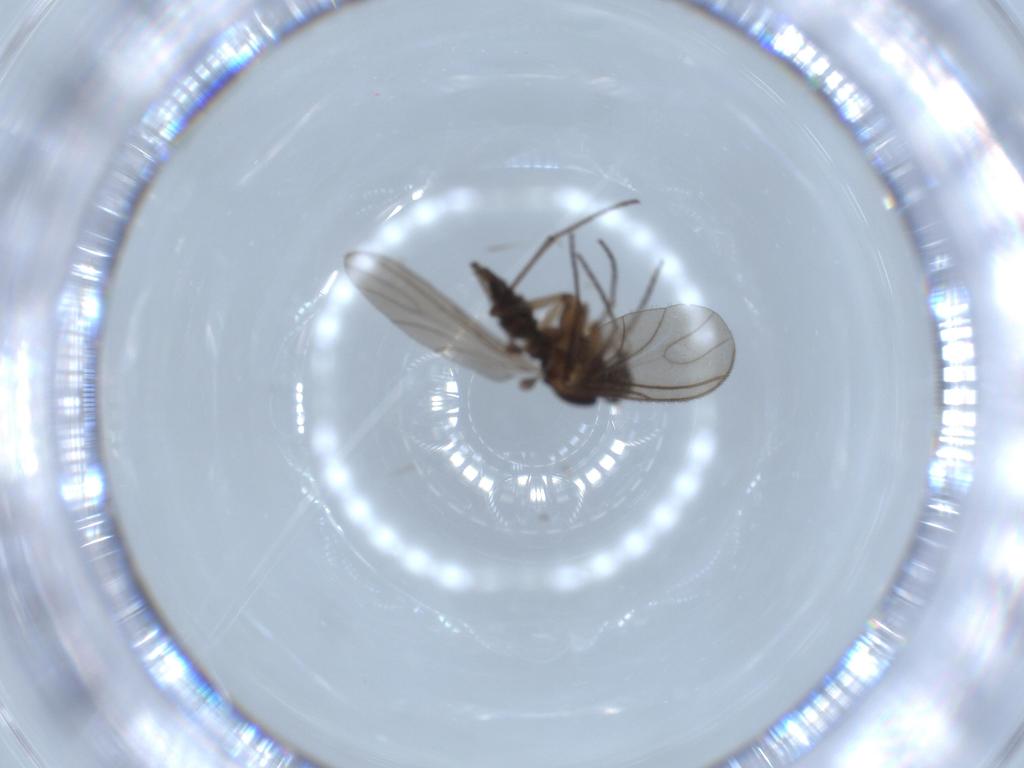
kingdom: Animalia
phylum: Arthropoda
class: Insecta
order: Diptera
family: Sciaridae
